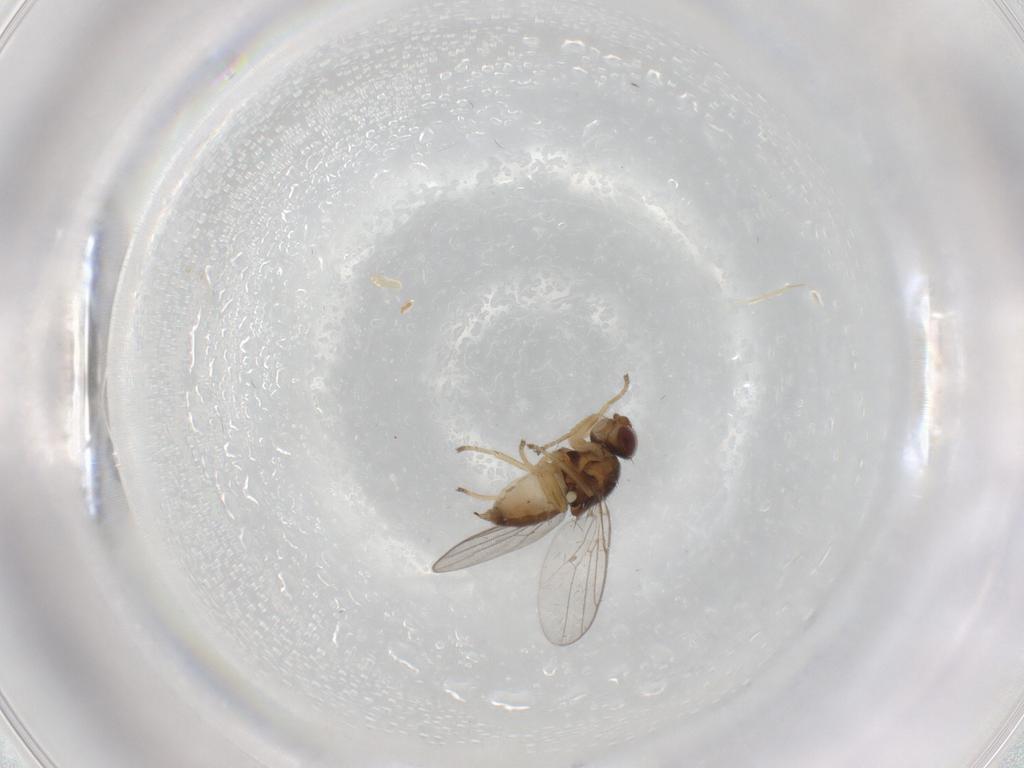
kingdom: Animalia
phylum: Arthropoda
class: Insecta
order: Diptera
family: Chloropidae
